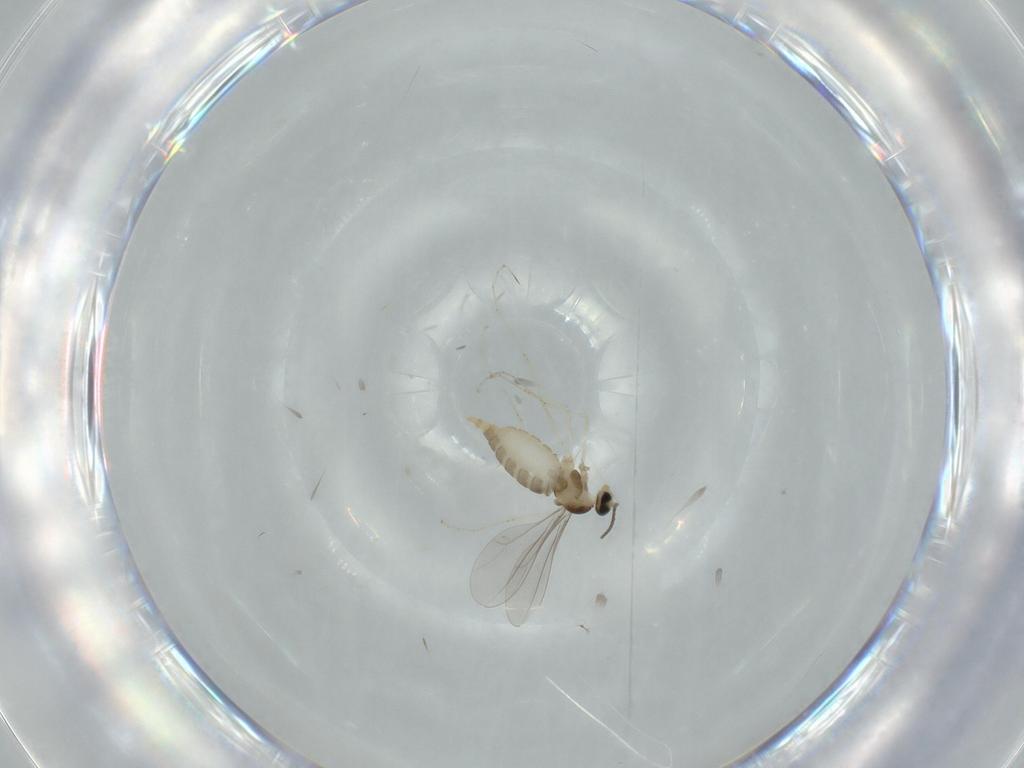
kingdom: Animalia
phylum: Arthropoda
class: Insecta
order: Diptera
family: Cecidomyiidae
